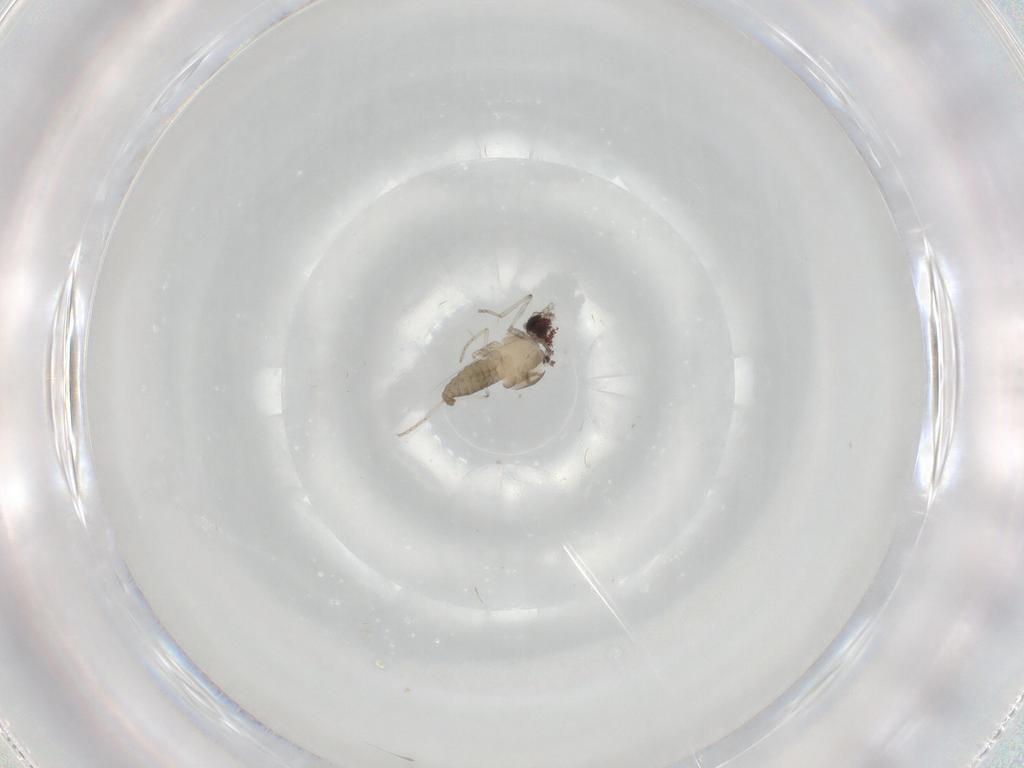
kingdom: Animalia
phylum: Arthropoda
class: Insecta
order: Diptera
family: Cecidomyiidae
